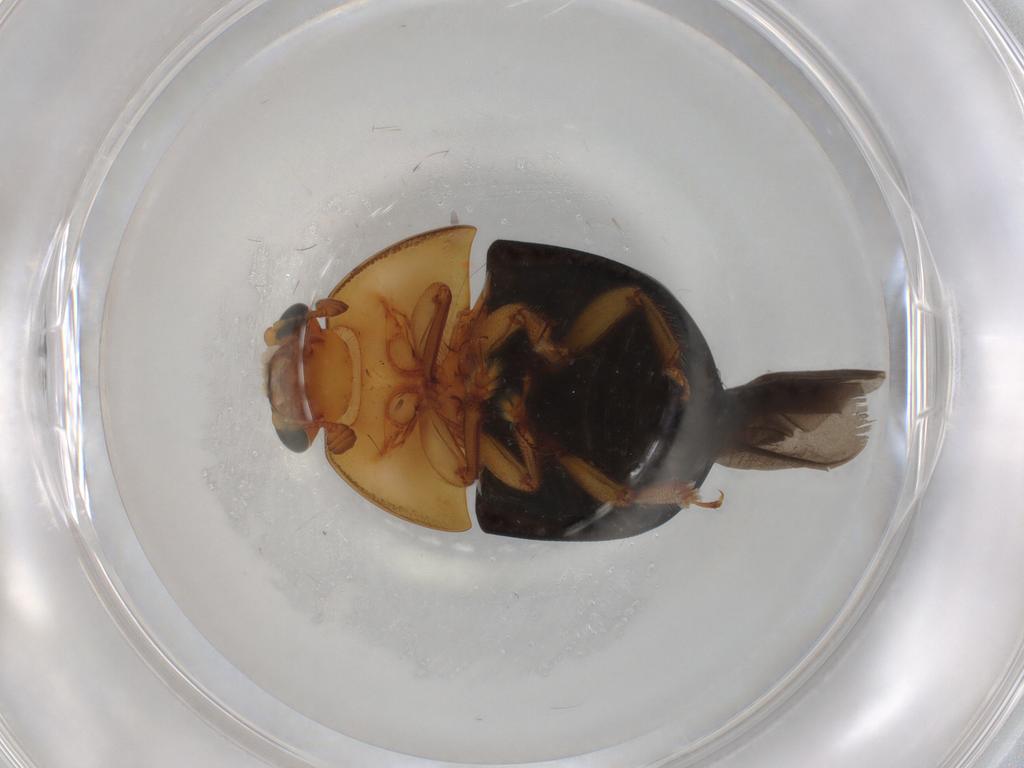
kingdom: Animalia
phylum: Arthropoda
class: Insecta
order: Coleoptera
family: Nitidulidae
